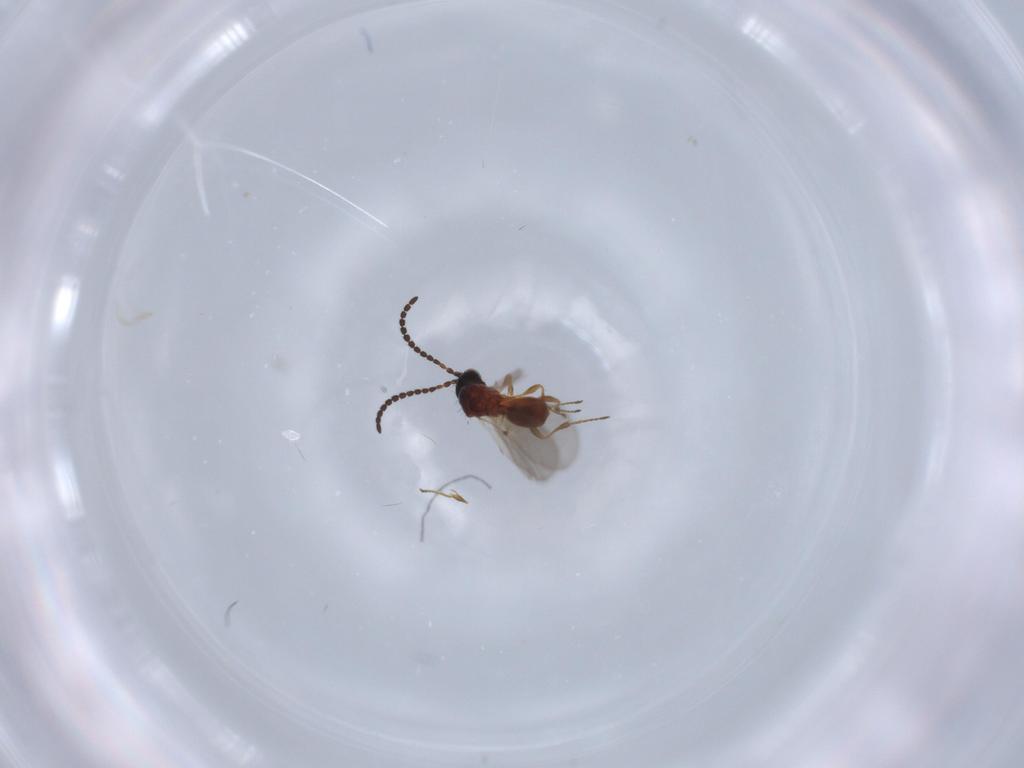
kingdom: Animalia
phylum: Arthropoda
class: Insecta
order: Hymenoptera
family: Diapriidae
